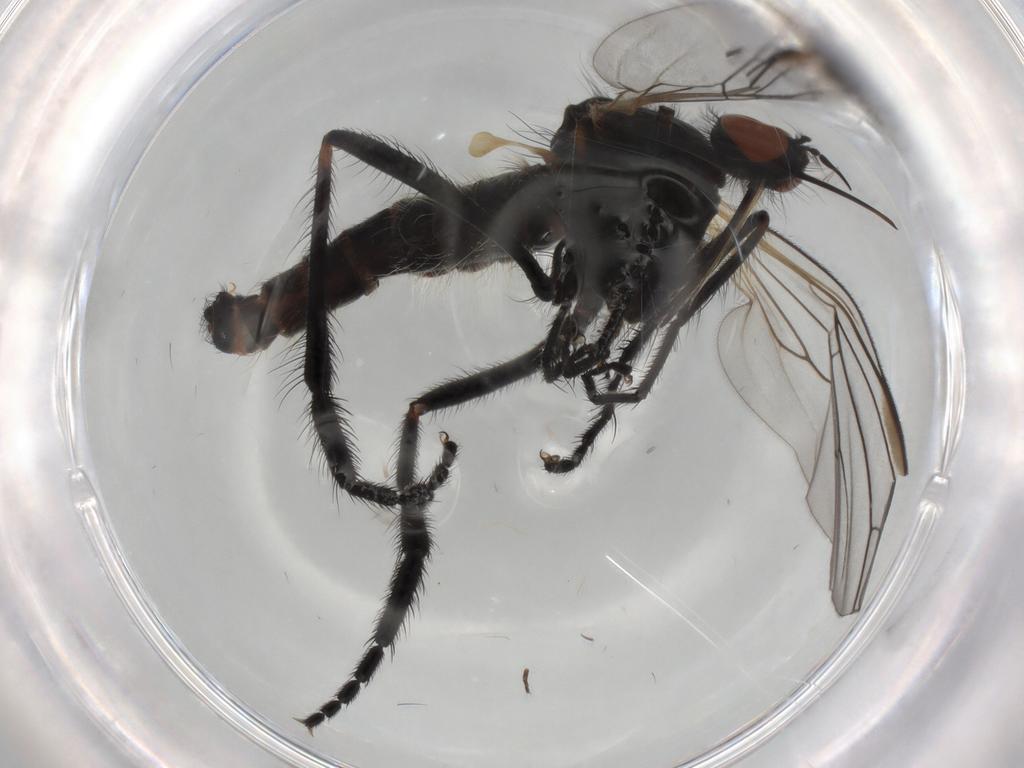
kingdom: Animalia
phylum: Arthropoda
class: Insecta
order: Diptera
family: Empididae
